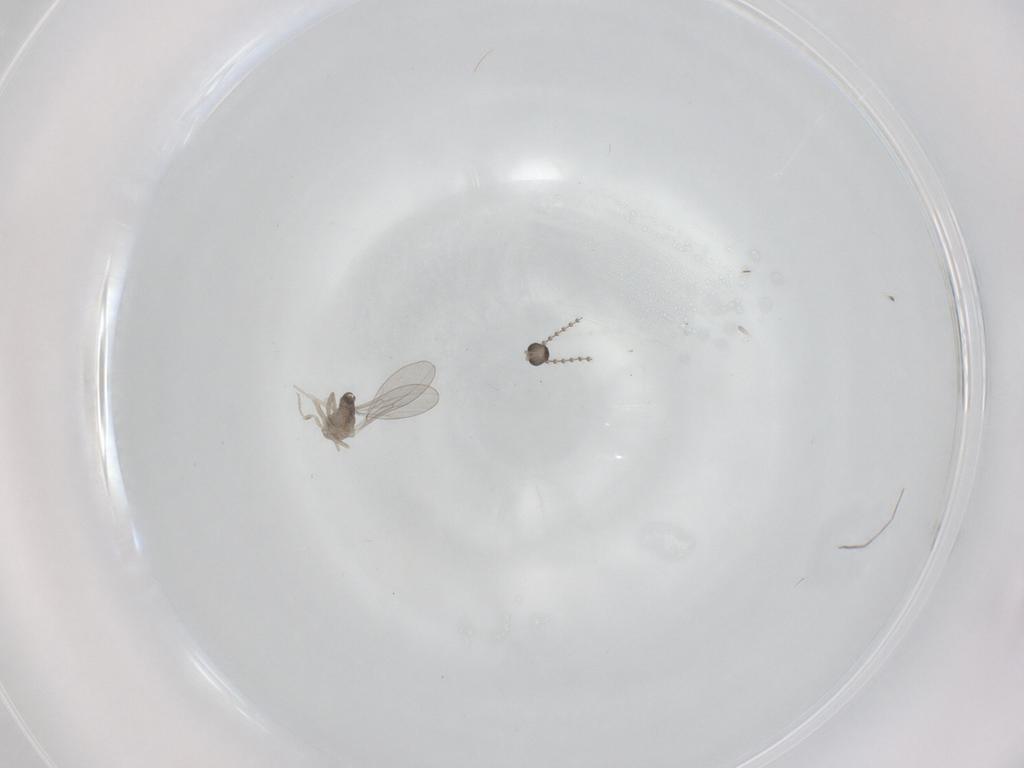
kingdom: Animalia
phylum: Arthropoda
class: Insecta
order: Diptera
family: Cecidomyiidae
